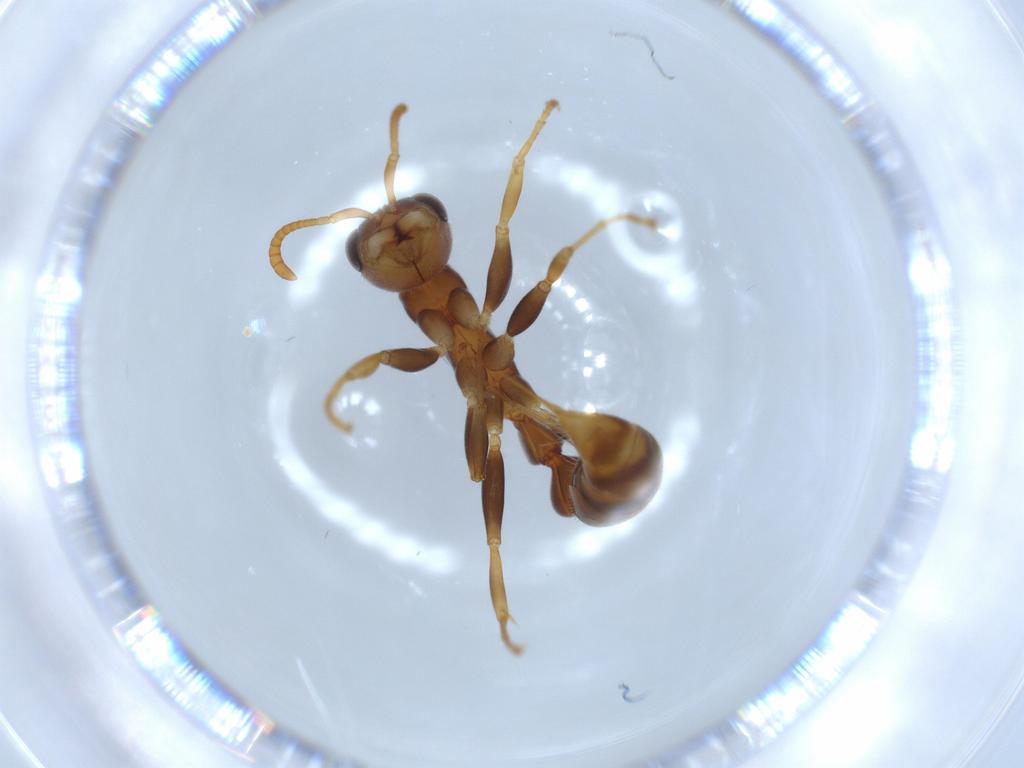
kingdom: Animalia
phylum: Arthropoda
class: Insecta
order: Hymenoptera
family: Formicidae
